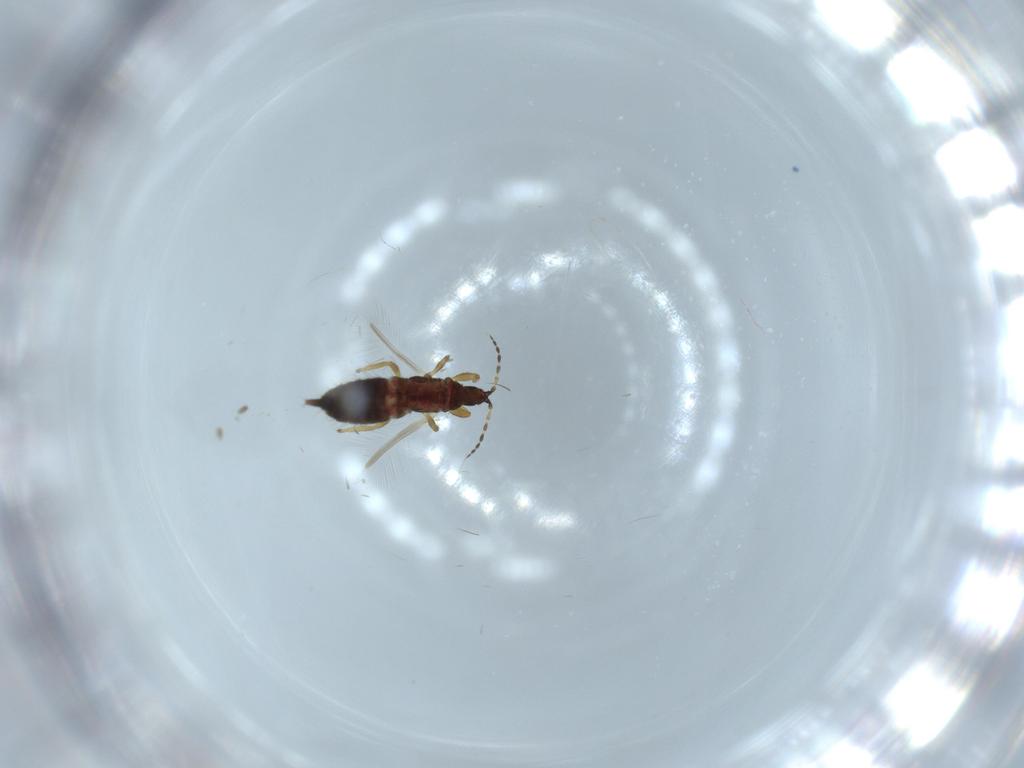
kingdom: Animalia
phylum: Arthropoda
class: Insecta
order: Thysanoptera
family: Phlaeothripidae
